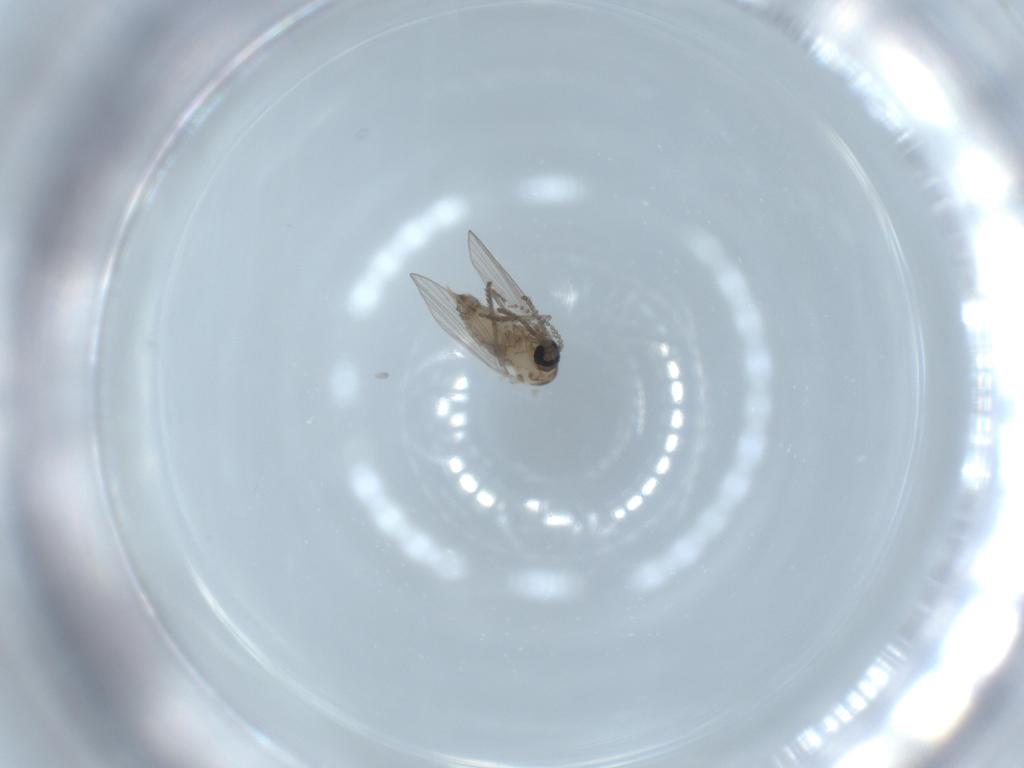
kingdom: Animalia
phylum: Arthropoda
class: Insecta
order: Diptera
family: Psychodidae
